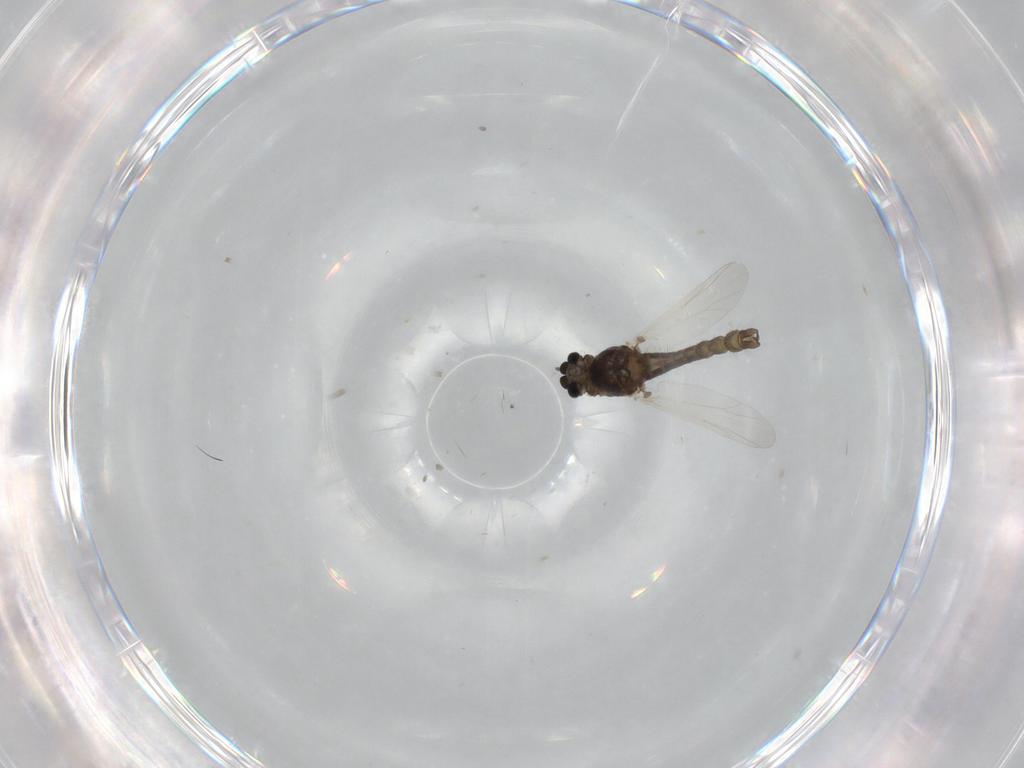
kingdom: Animalia
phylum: Arthropoda
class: Insecta
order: Diptera
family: Chironomidae
